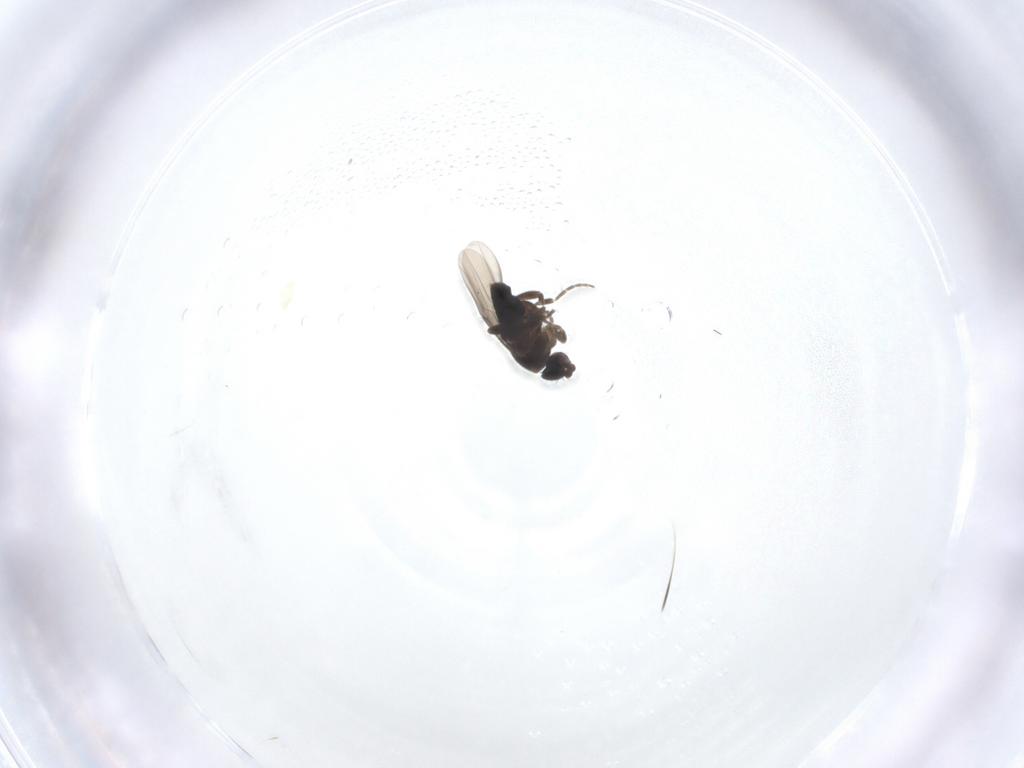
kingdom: Animalia
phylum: Arthropoda
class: Insecta
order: Diptera
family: Phoridae
